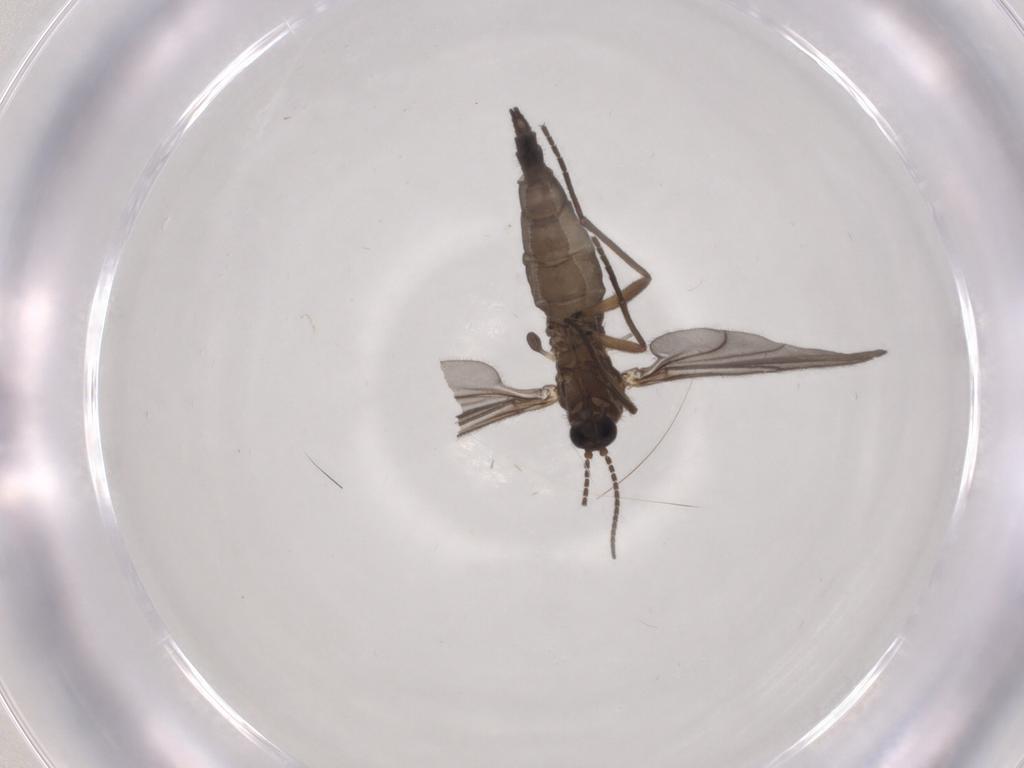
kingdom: Animalia
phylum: Arthropoda
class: Insecta
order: Diptera
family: Sciaridae
